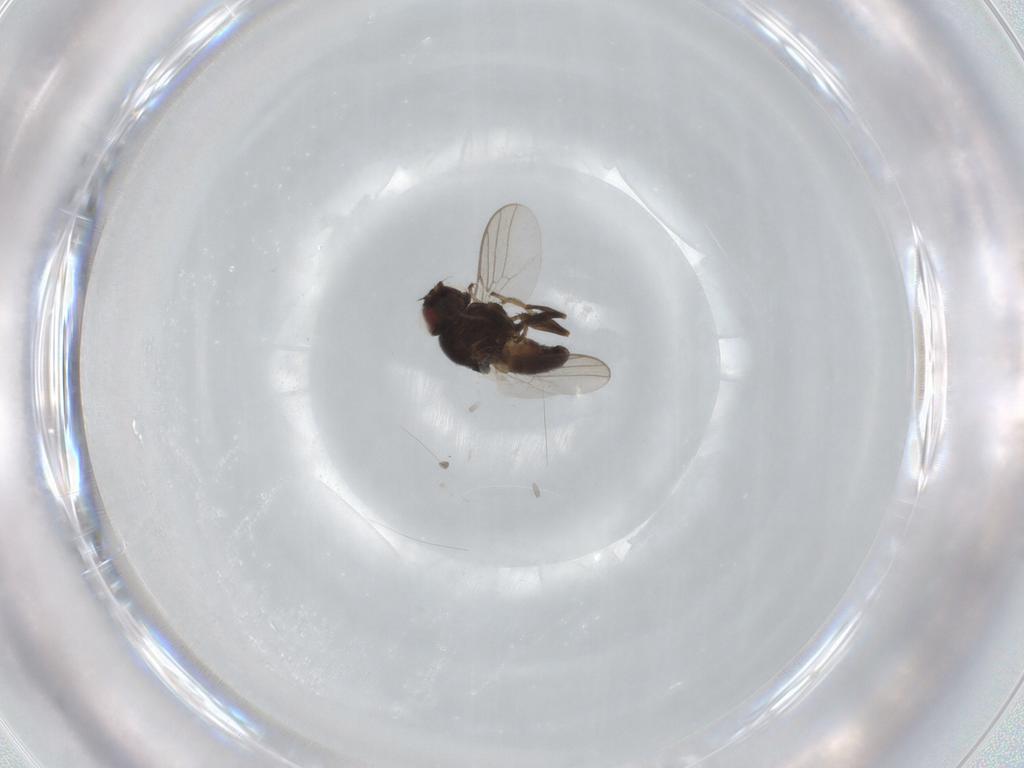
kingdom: Animalia
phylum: Arthropoda
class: Insecta
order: Diptera
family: Chloropidae
